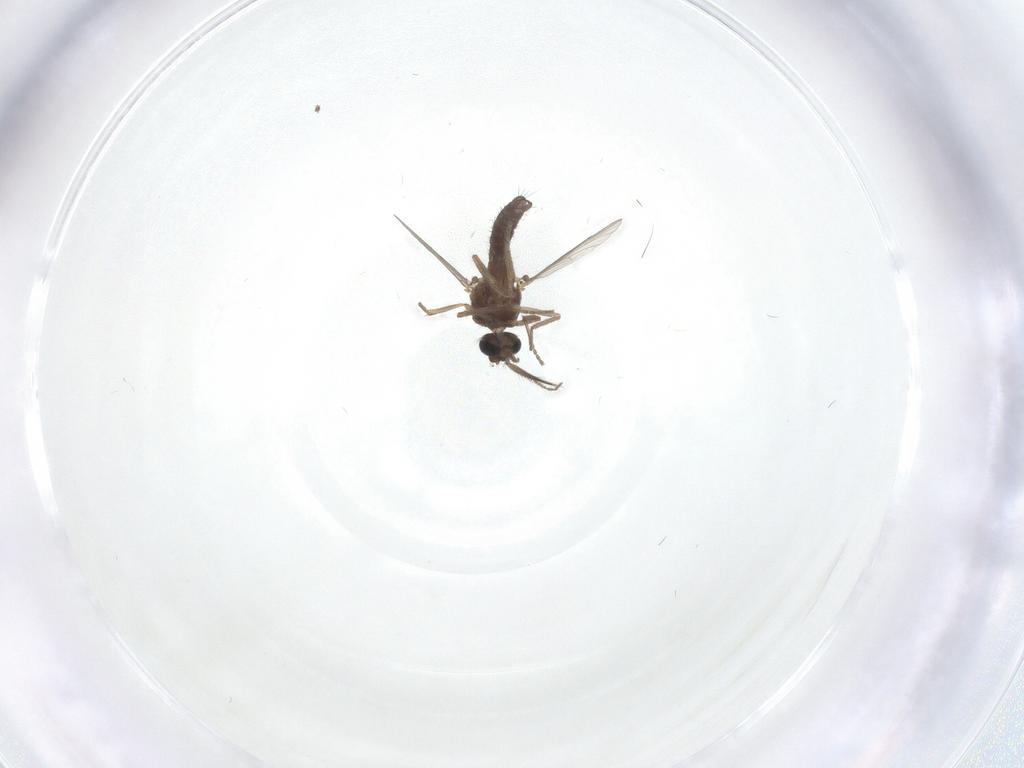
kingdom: Animalia
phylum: Arthropoda
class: Insecta
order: Diptera
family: Ceratopogonidae
